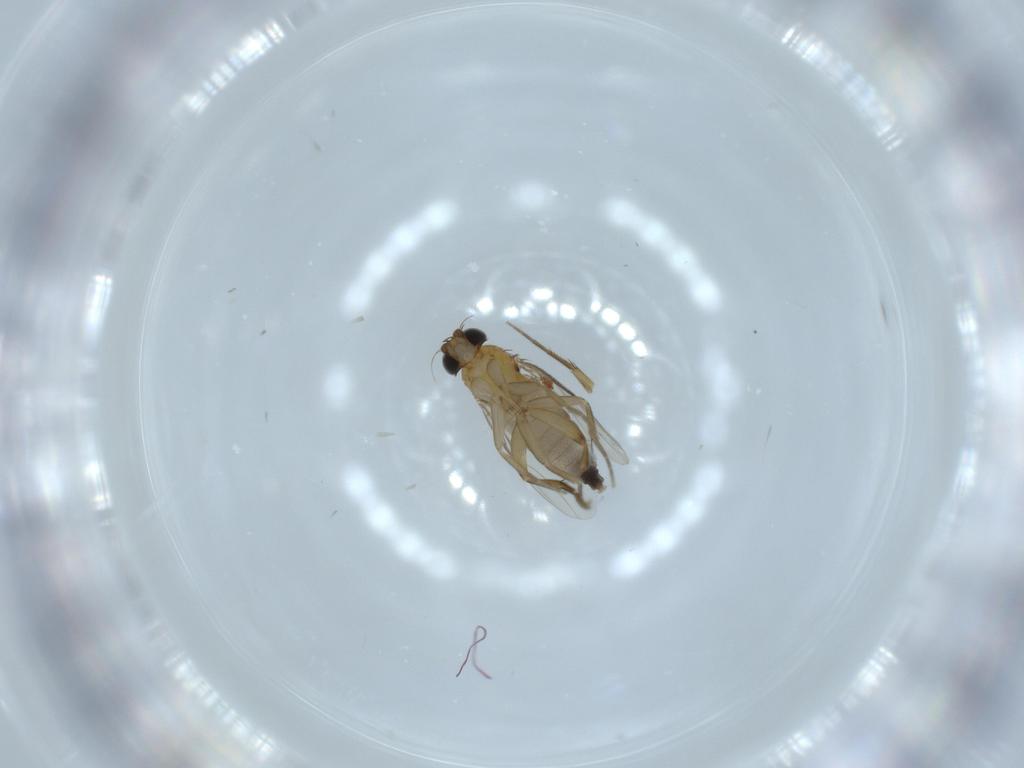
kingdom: Animalia
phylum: Arthropoda
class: Insecta
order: Diptera
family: Phoridae
